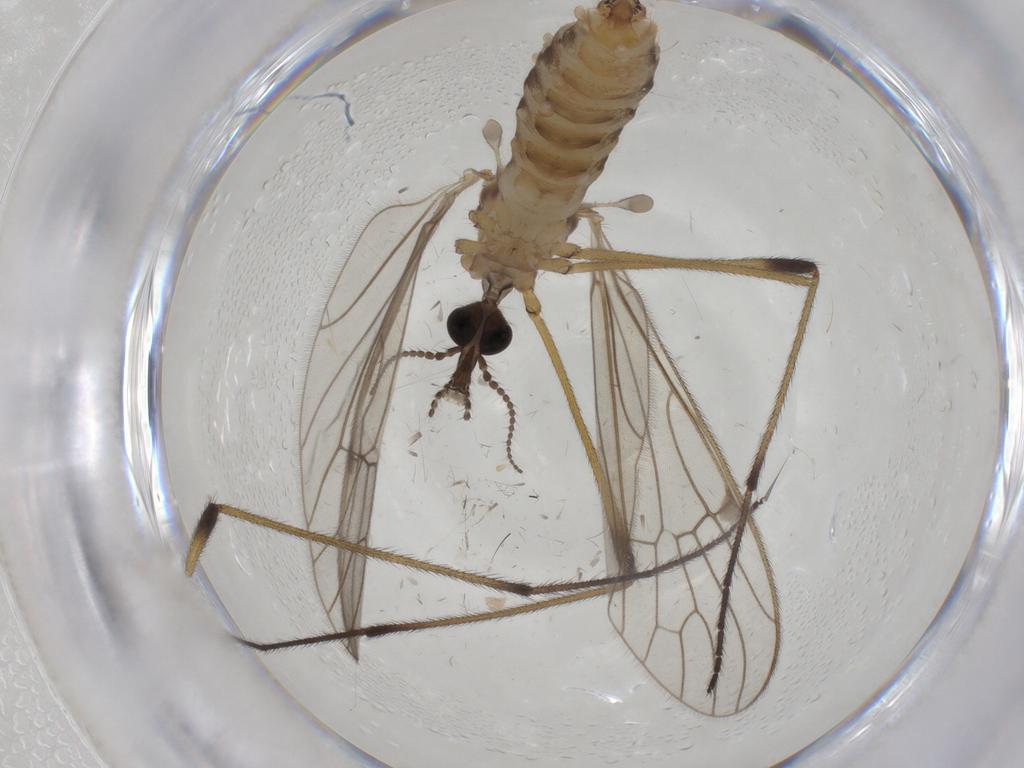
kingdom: Animalia
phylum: Arthropoda
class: Insecta
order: Diptera
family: Limoniidae
